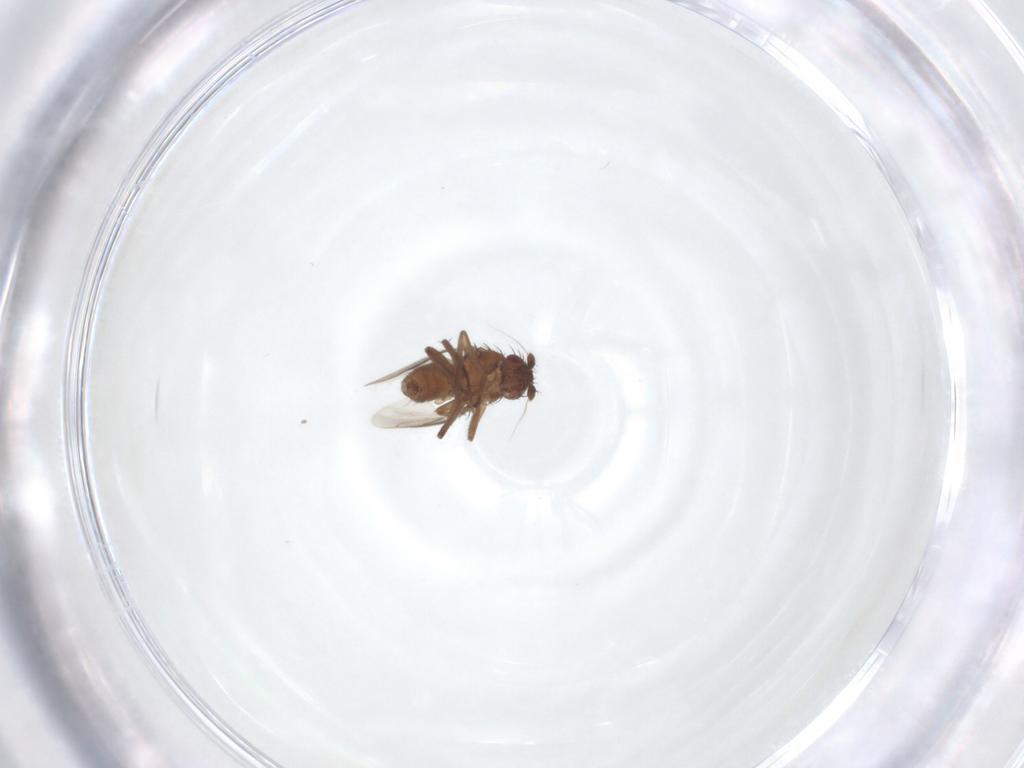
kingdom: Animalia
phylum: Arthropoda
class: Insecta
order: Diptera
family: Sphaeroceridae
